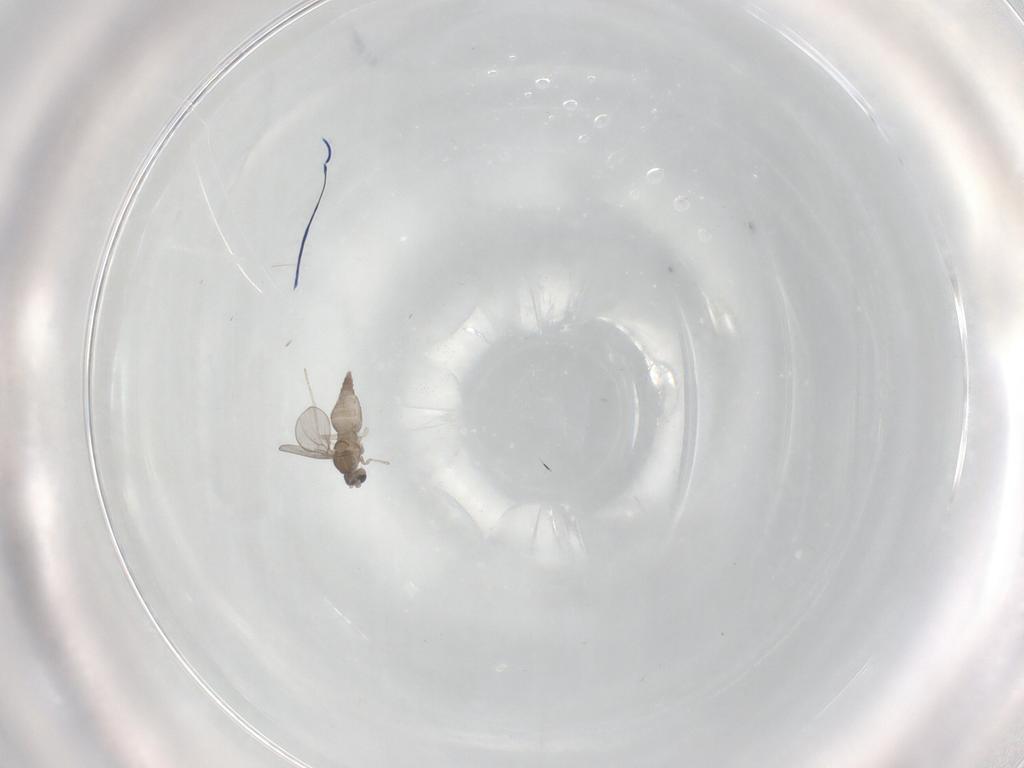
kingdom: Animalia
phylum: Arthropoda
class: Insecta
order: Diptera
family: Cecidomyiidae
